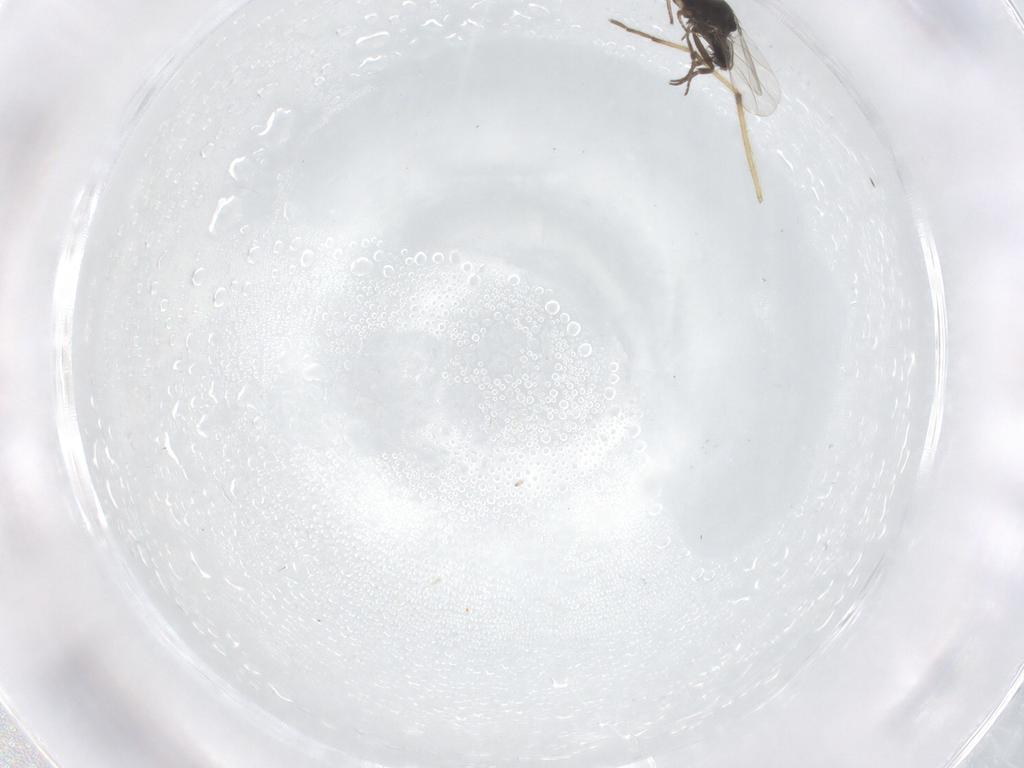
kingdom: Animalia
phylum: Arthropoda
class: Insecta
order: Diptera
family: Phoridae
